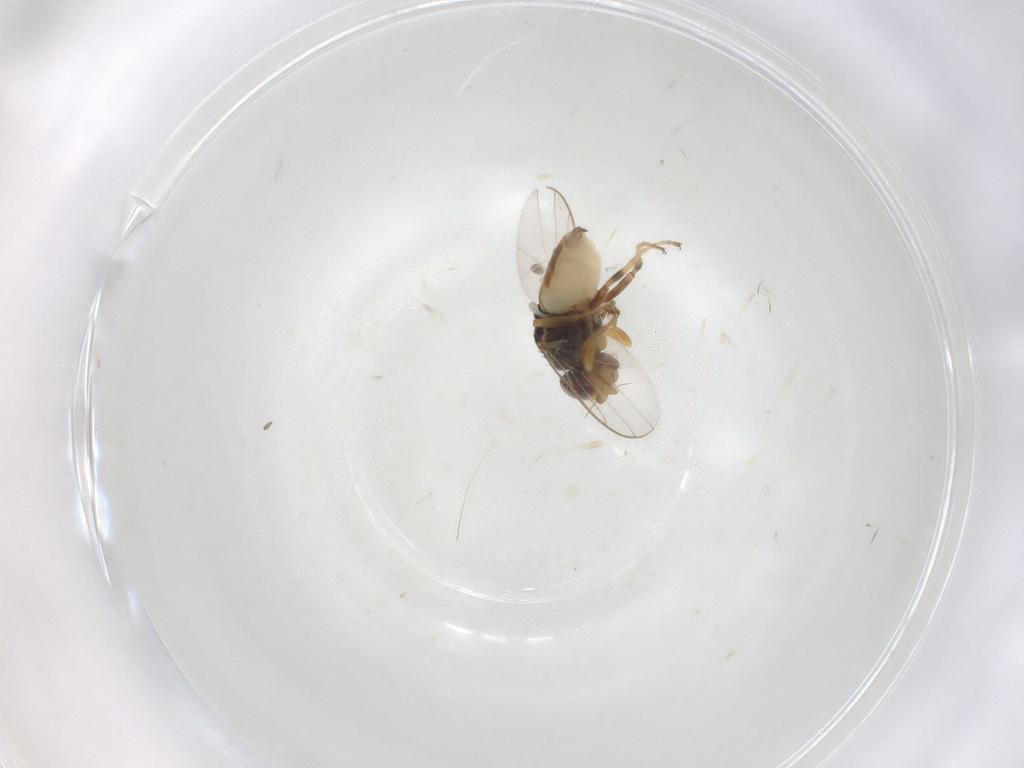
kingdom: Animalia
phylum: Arthropoda
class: Insecta
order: Diptera
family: Chloropidae
